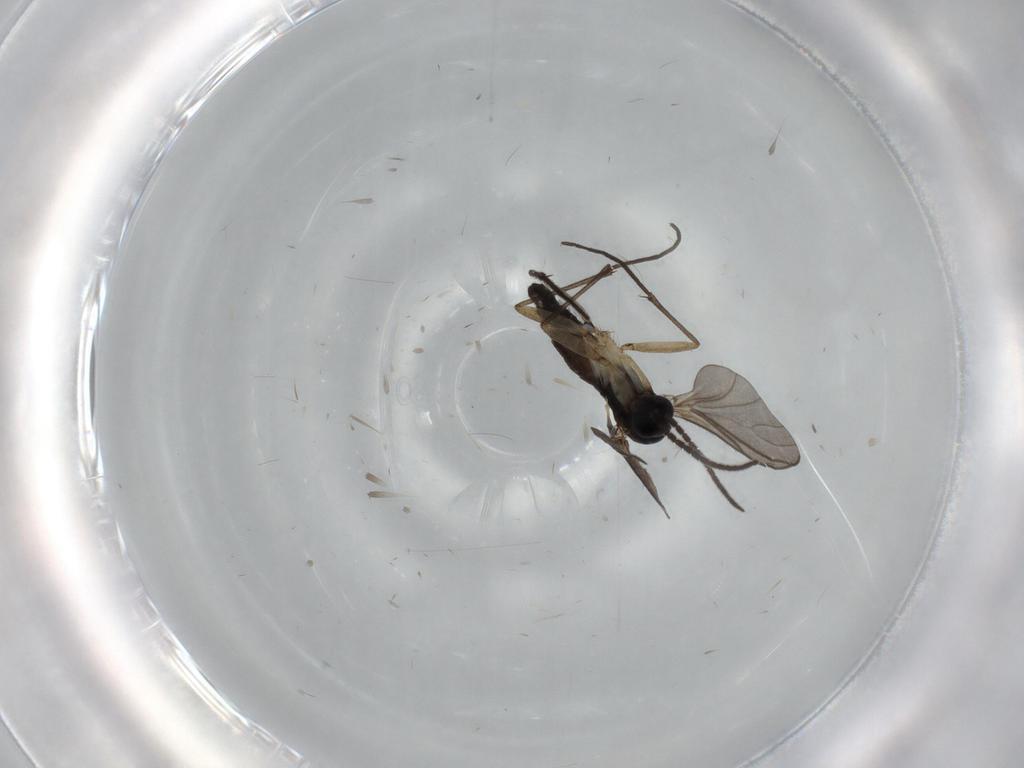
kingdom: Animalia
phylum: Arthropoda
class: Insecta
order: Diptera
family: Sciaridae
